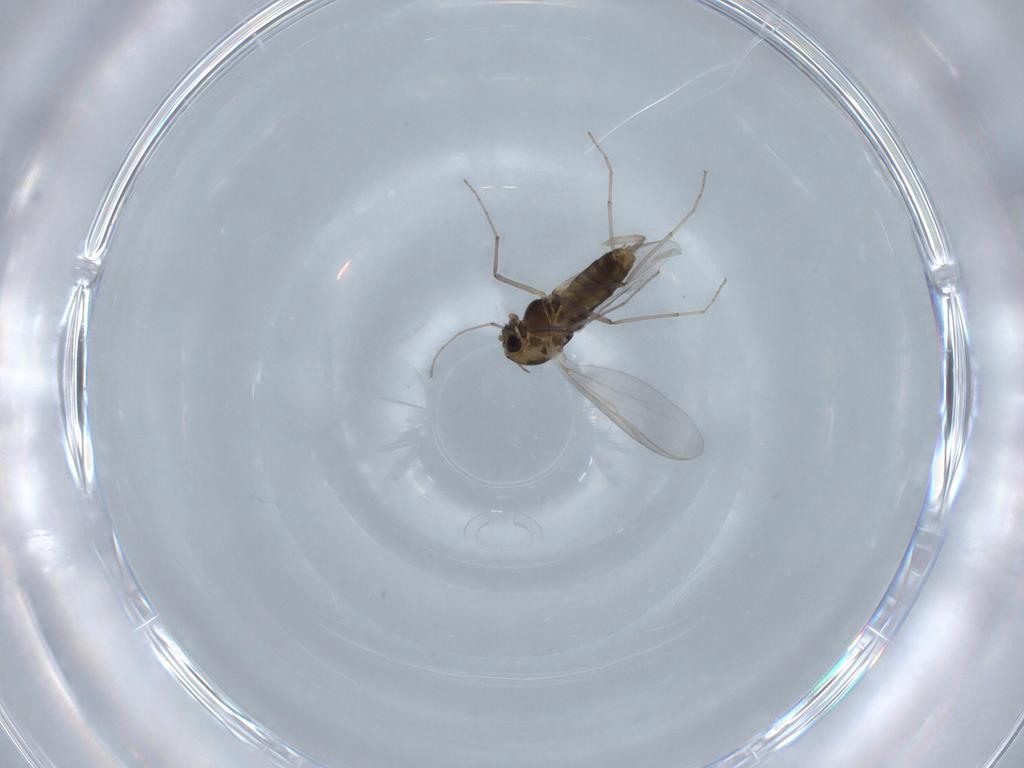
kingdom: Animalia
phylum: Arthropoda
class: Insecta
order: Diptera
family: Chironomidae
